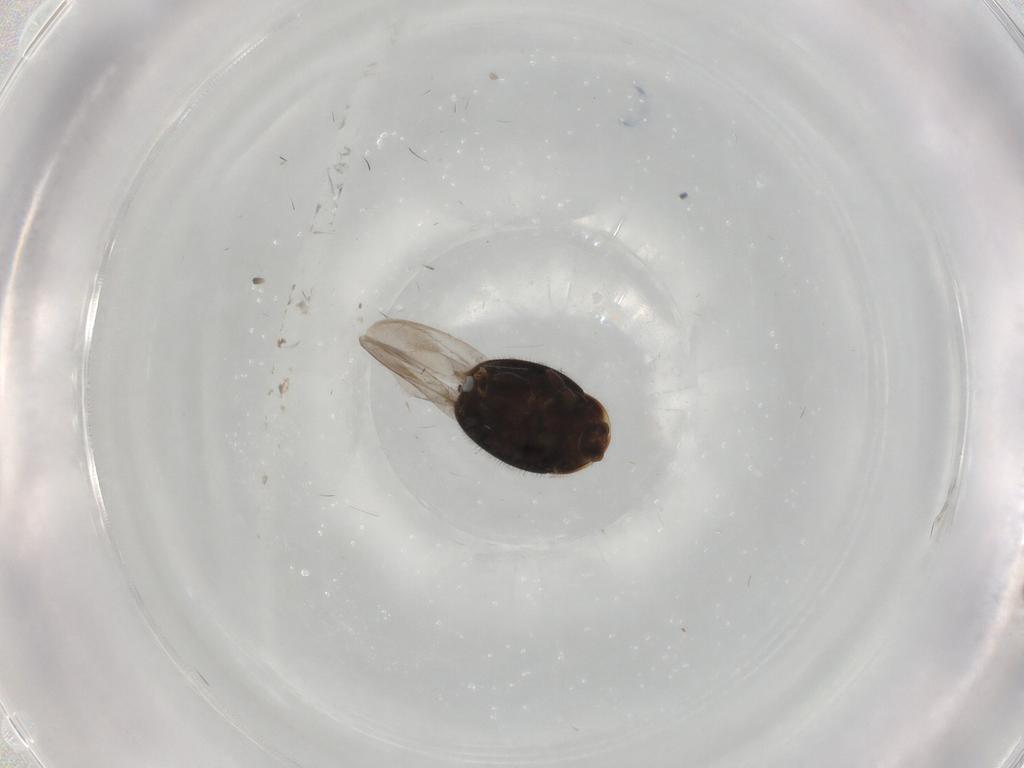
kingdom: Animalia
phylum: Arthropoda
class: Insecta
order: Coleoptera
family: Corylophidae
